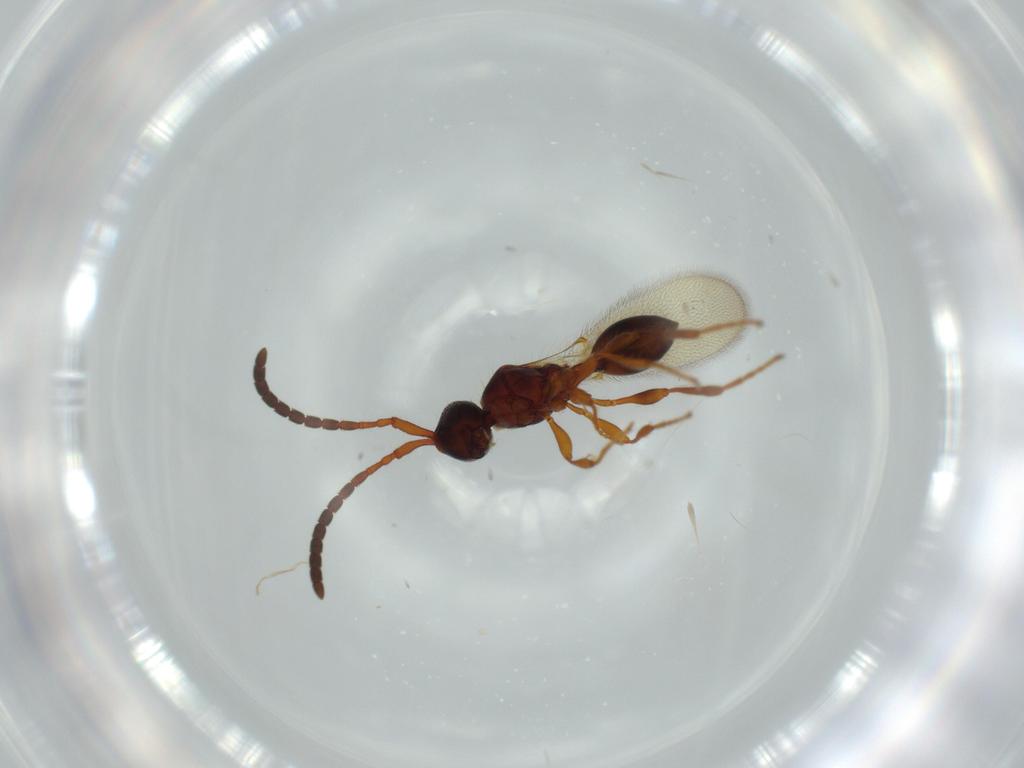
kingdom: Animalia
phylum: Arthropoda
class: Insecta
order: Hymenoptera
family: Diapriidae
